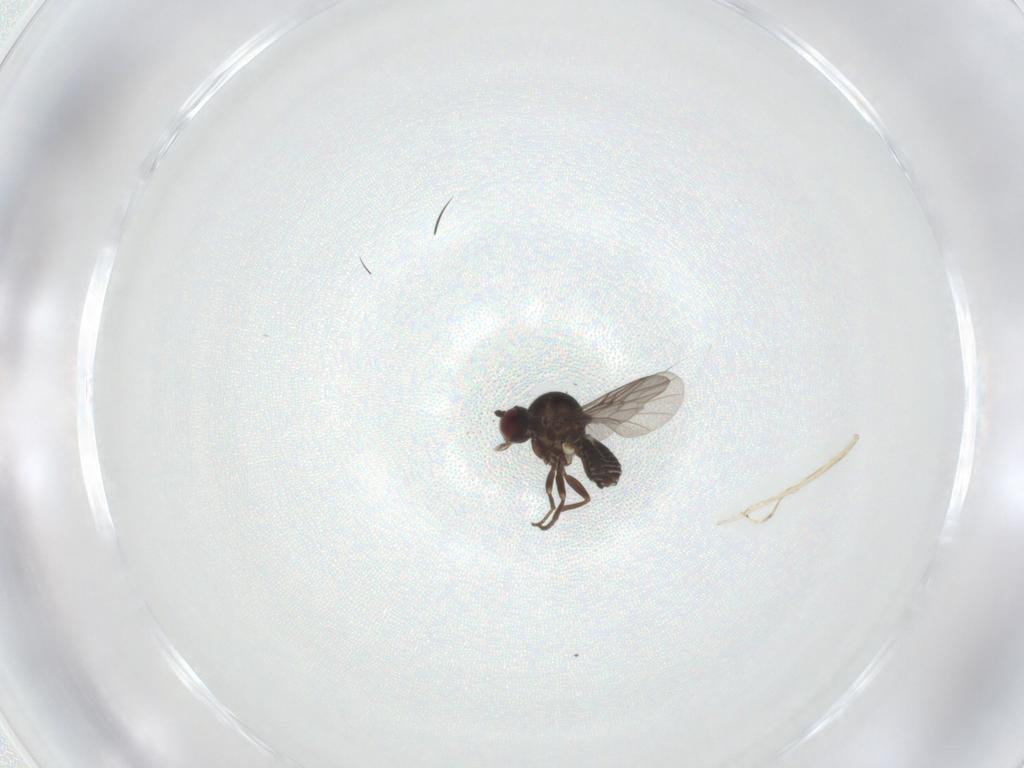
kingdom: Animalia
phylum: Arthropoda
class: Insecta
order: Diptera
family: Bombyliidae
